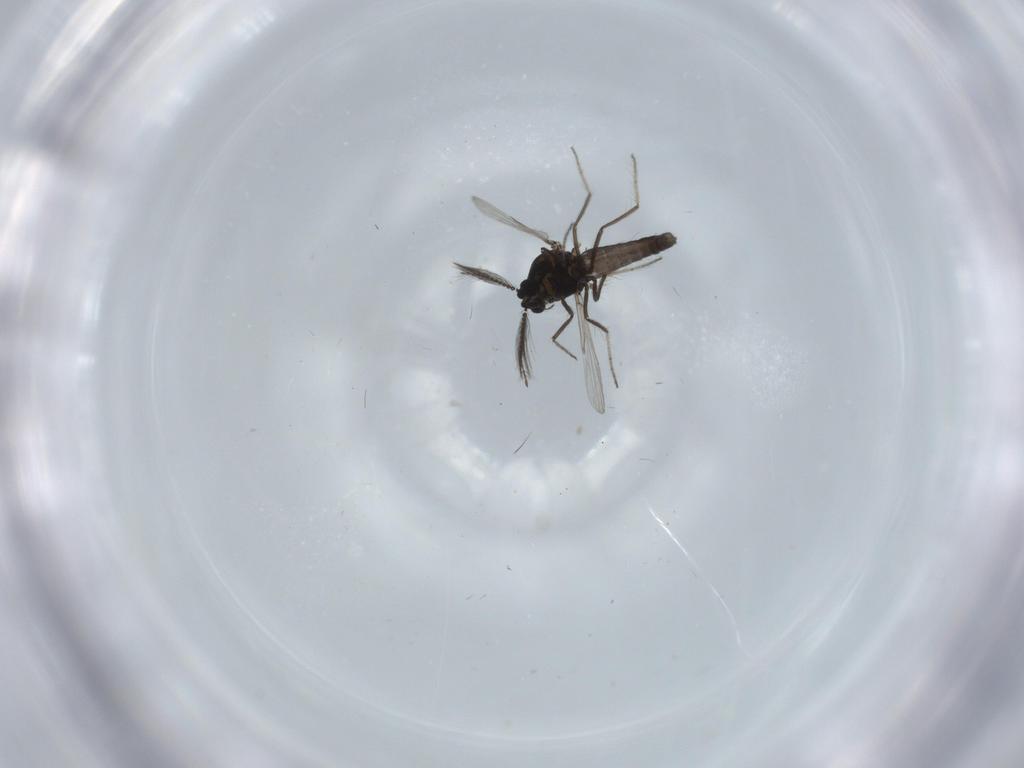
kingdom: Animalia
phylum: Arthropoda
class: Insecta
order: Diptera
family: Ceratopogonidae
